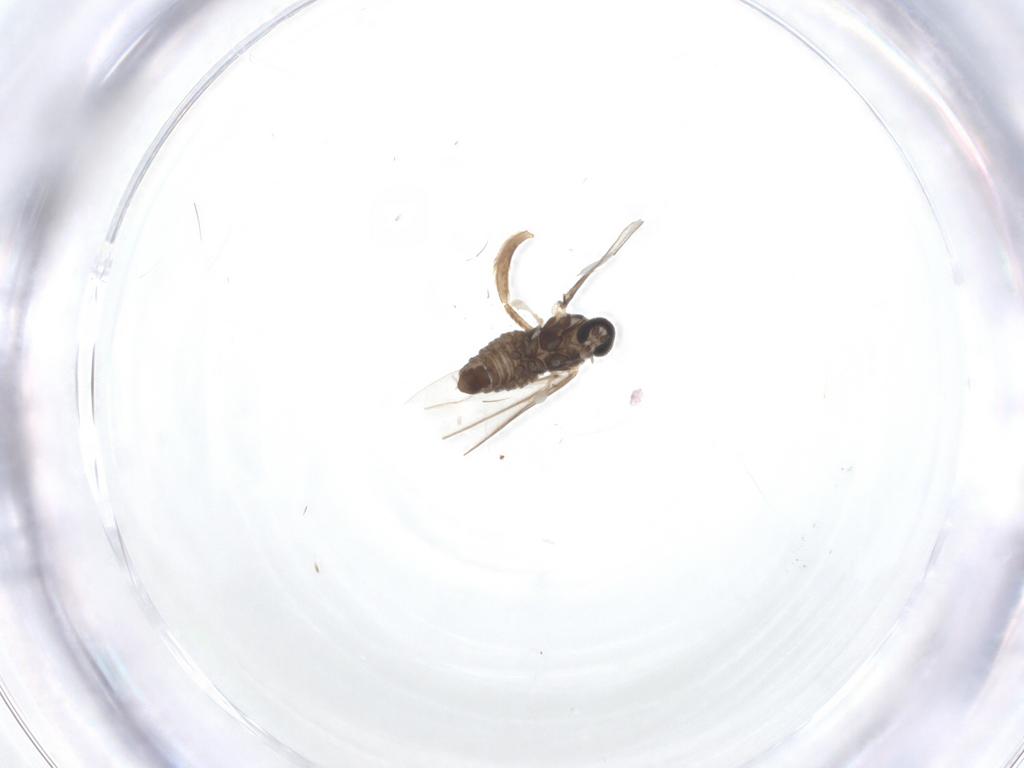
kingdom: Animalia
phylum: Arthropoda
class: Insecta
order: Diptera
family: Cecidomyiidae
